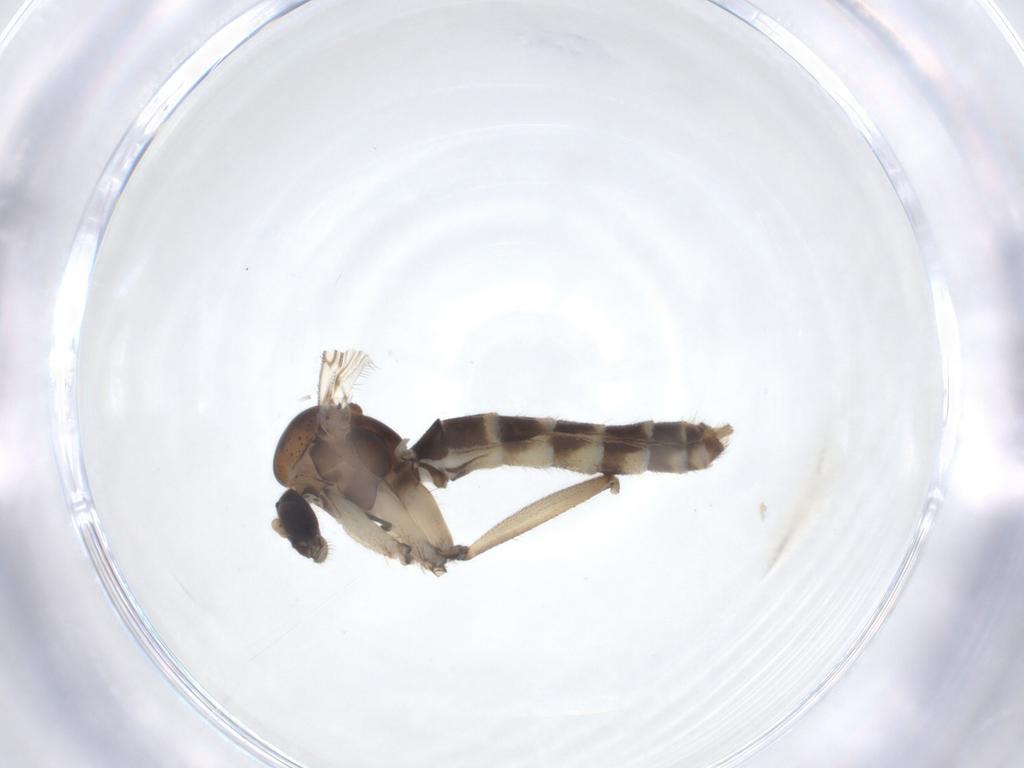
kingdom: Animalia
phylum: Arthropoda
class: Insecta
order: Diptera
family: Mycetophilidae
